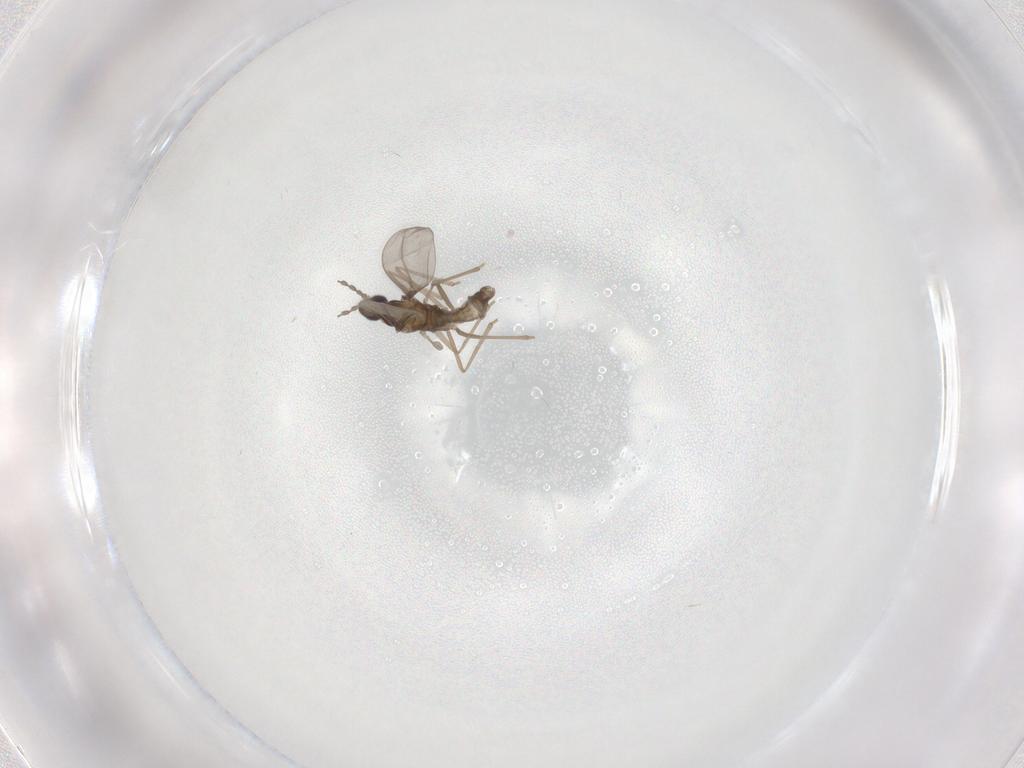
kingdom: Animalia
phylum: Arthropoda
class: Insecta
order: Diptera
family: Cecidomyiidae
